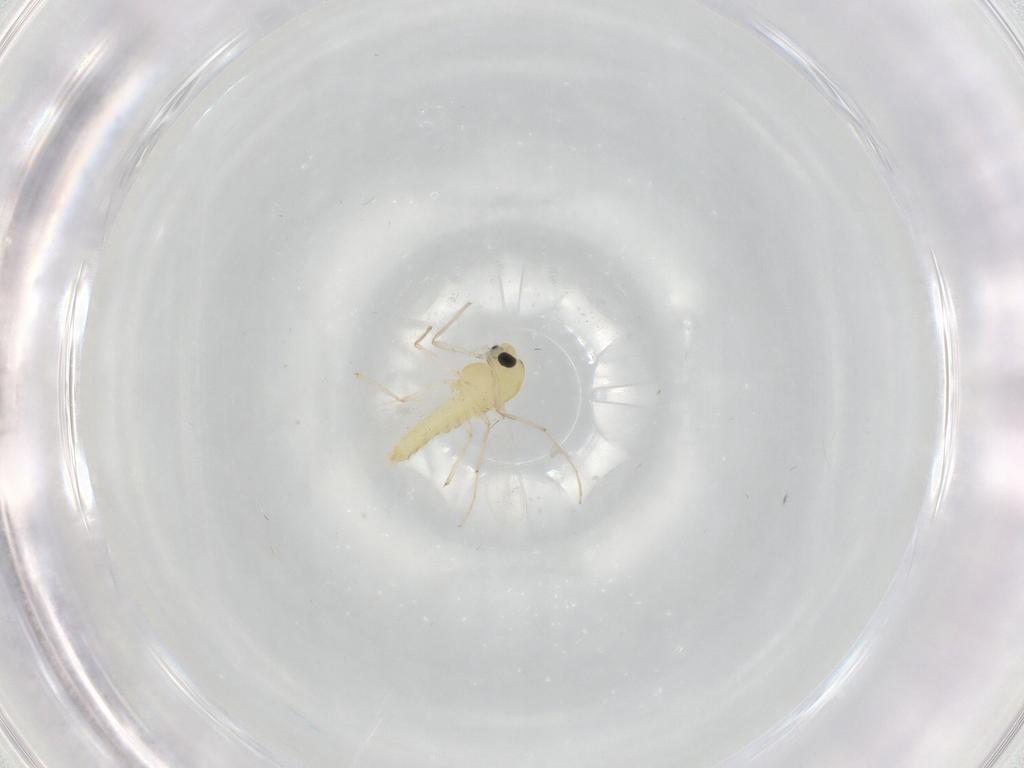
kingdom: Animalia
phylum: Arthropoda
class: Insecta
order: Diptera
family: Chironomidae
